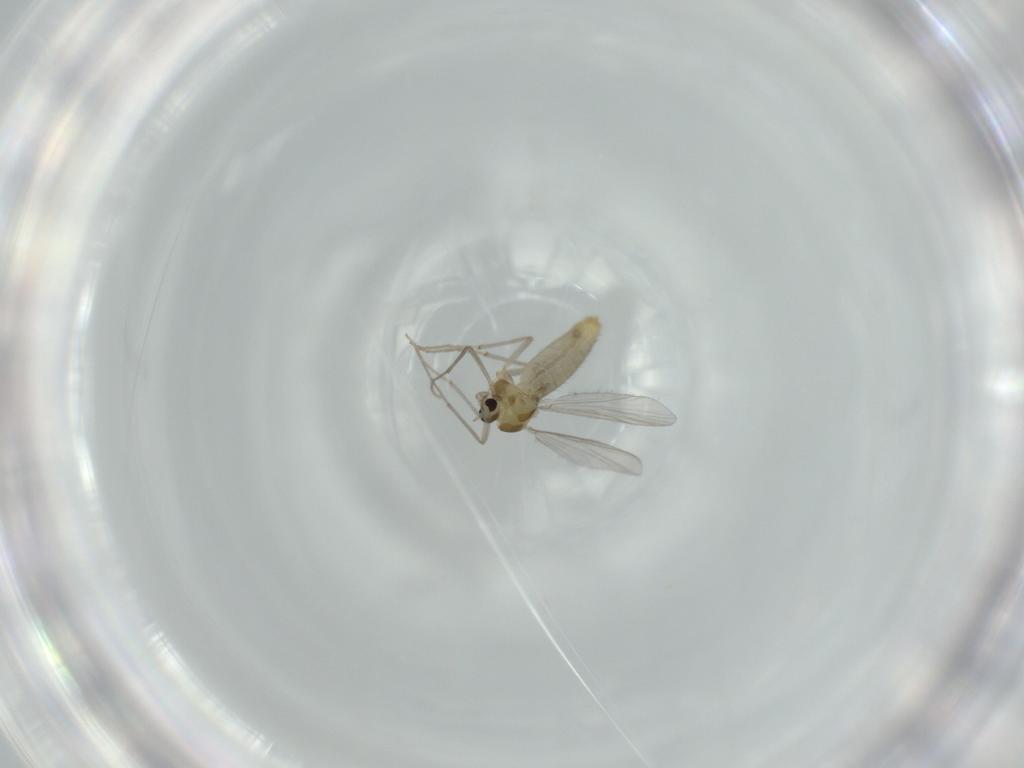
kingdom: Animalia
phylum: Arthropoda
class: Insecta
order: Diptera
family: Chironomidae
